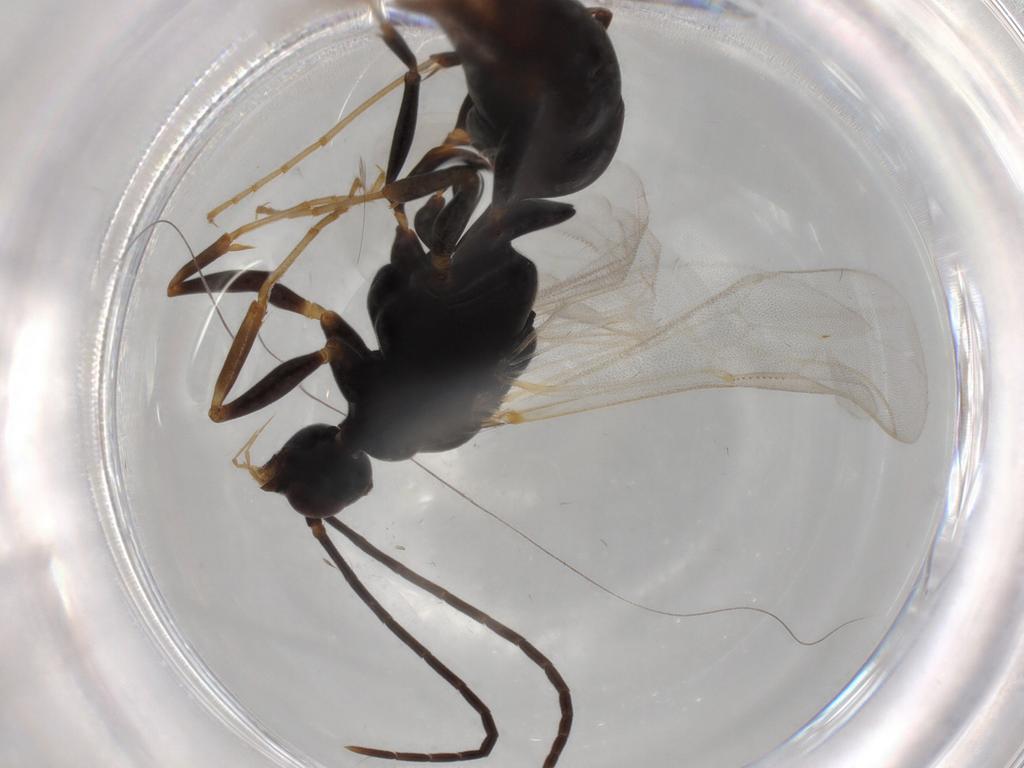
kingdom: Animalia
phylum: Arthropoda
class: Insecta
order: Hymenoptera
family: Formicidae
